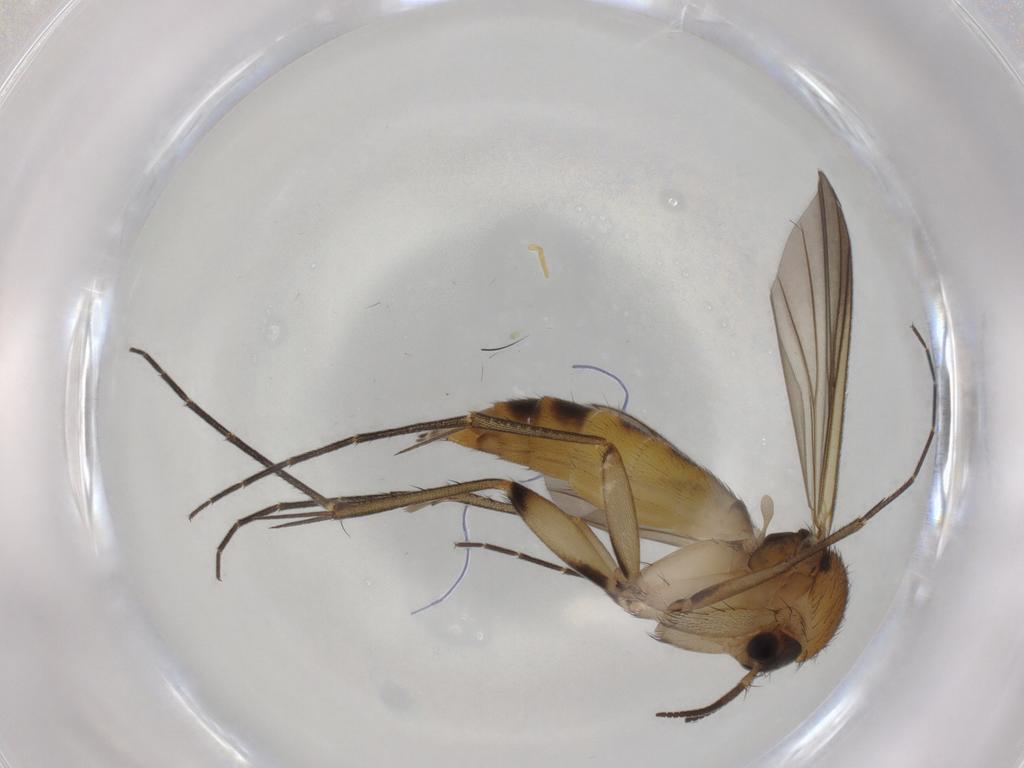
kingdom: Animalia
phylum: Arthropoda
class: Insecta
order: Diptera
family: Mycetophilidae
